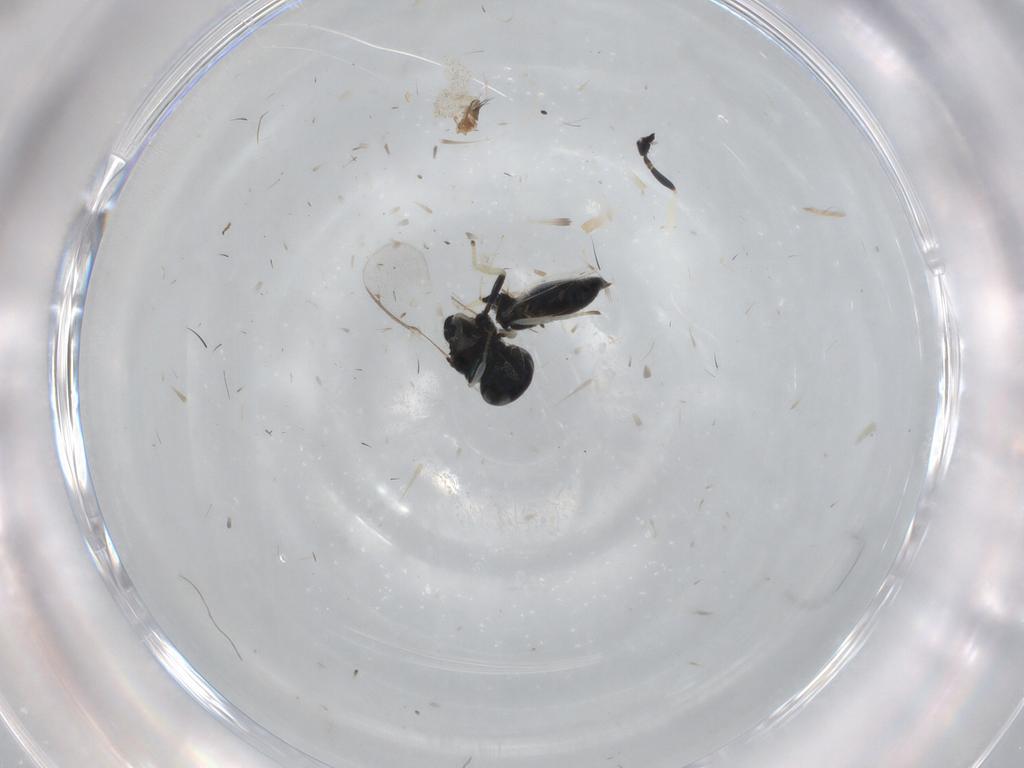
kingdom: Animalia
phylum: Arthropoda
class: Insecta
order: Hymenoptera
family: Braconidae
